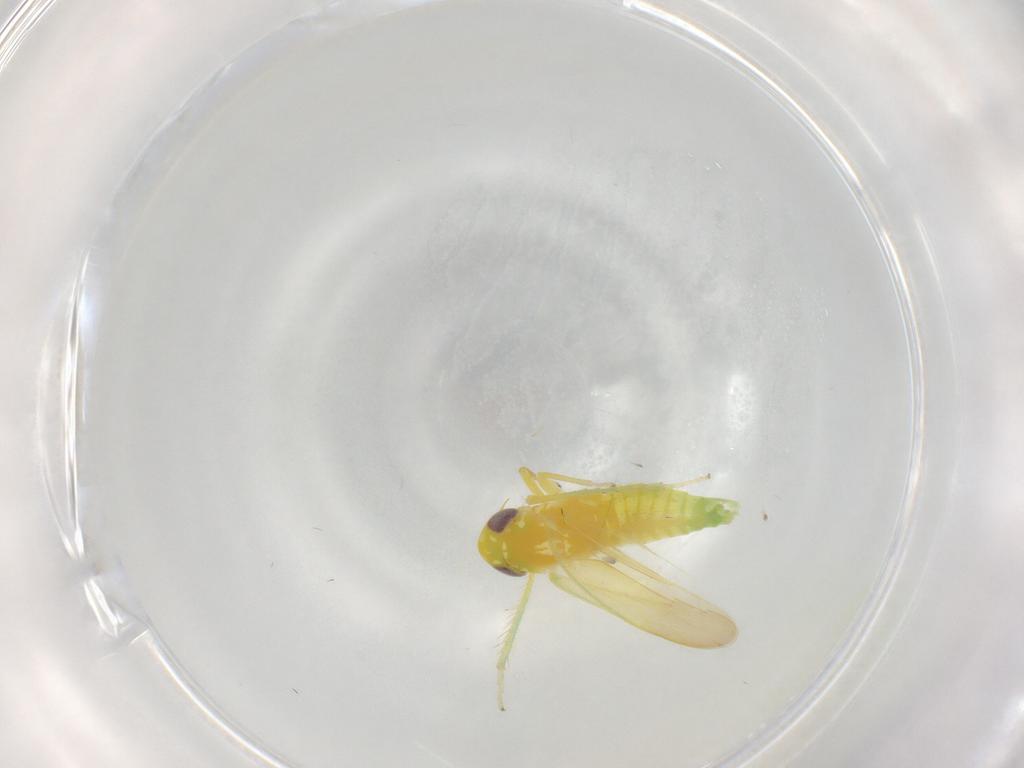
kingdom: Animalia
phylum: Arthropoda
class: Insecta
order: Hemiptera
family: Cicadellidae
